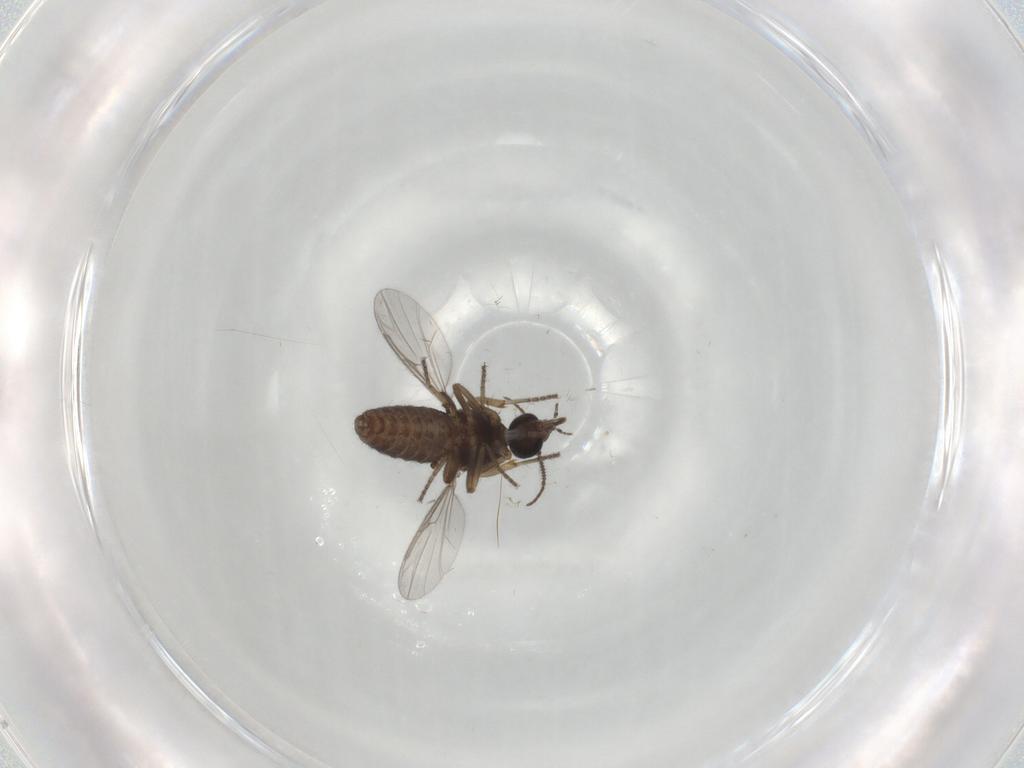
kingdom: Animalia
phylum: Arthropoda
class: Insecta
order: Diptera
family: Ceratopogonidae
